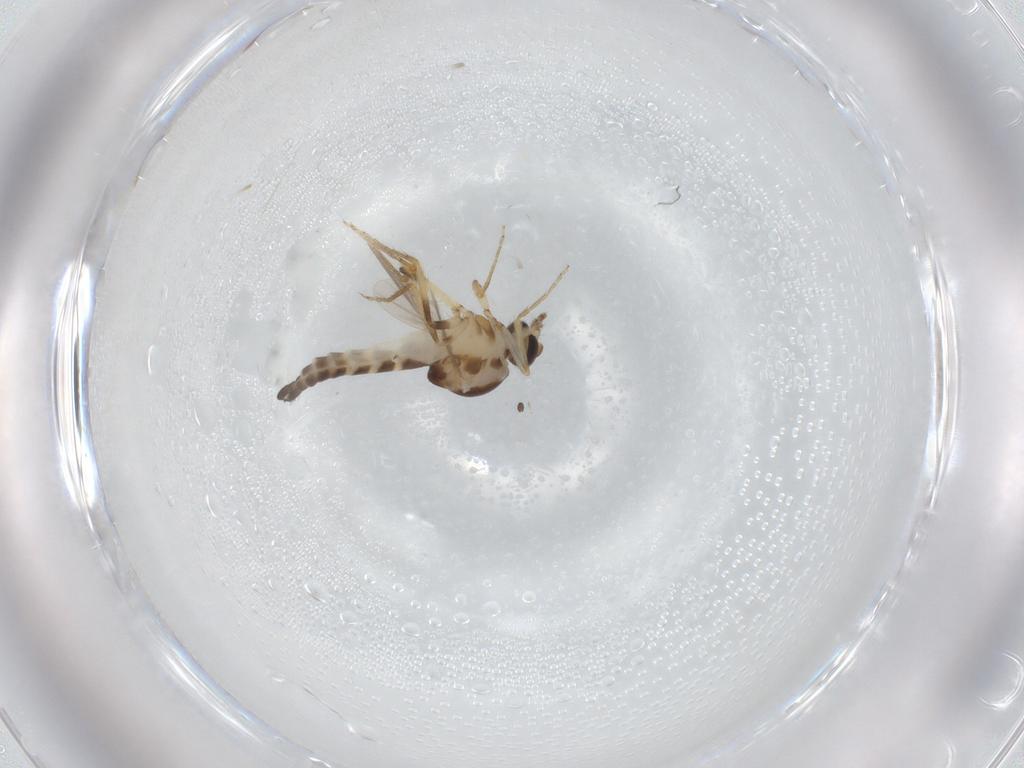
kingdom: Animalia
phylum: Arthropoda
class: Insecta
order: Diptera
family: Ceratopogonidae
